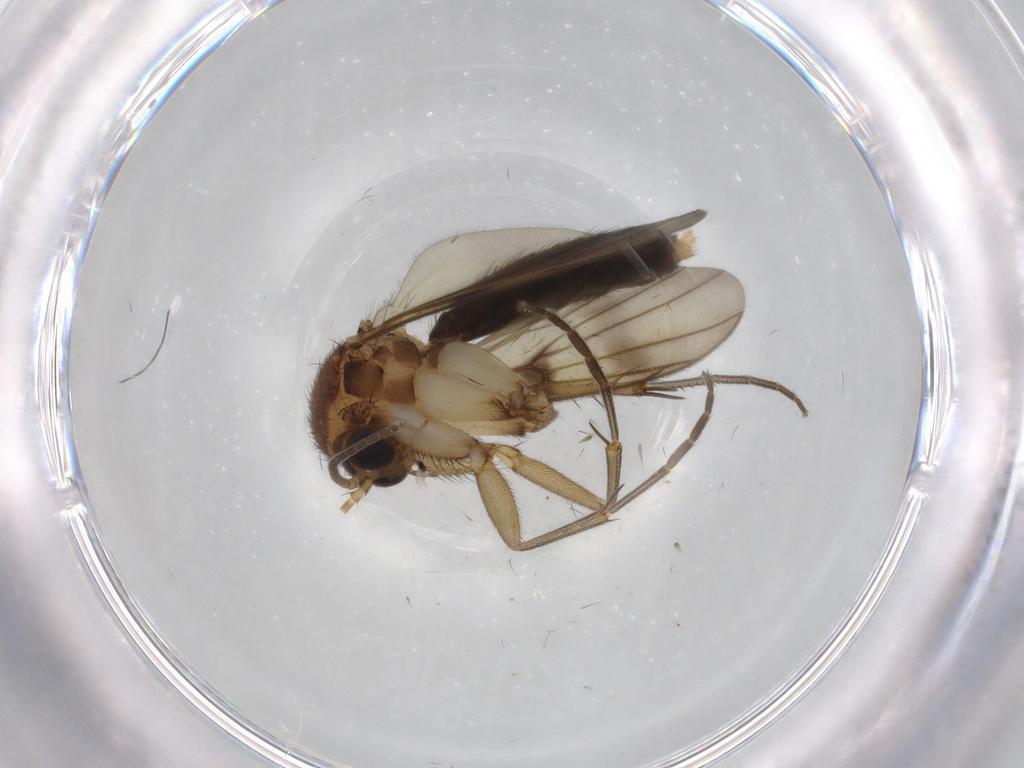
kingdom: Animalia
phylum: Arthropoda
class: Insecta
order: Diptera
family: Cecidomyiidae
